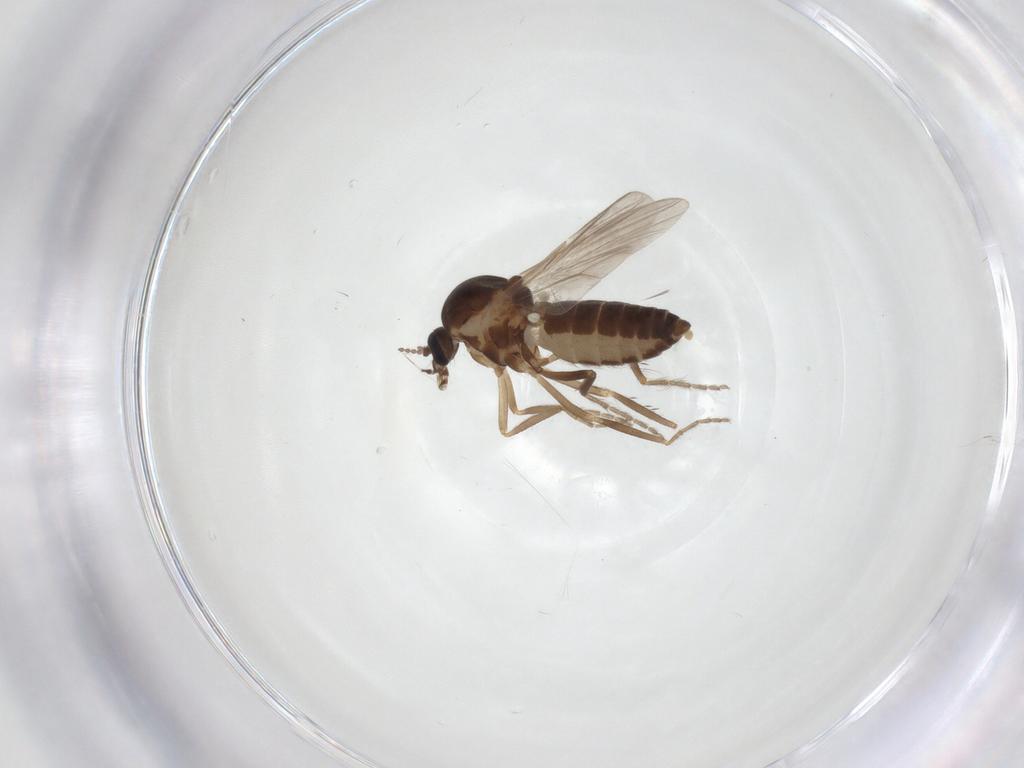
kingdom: Animalia
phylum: Arthropoda
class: Insecta
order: Diptera
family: Ceratopogonidae
